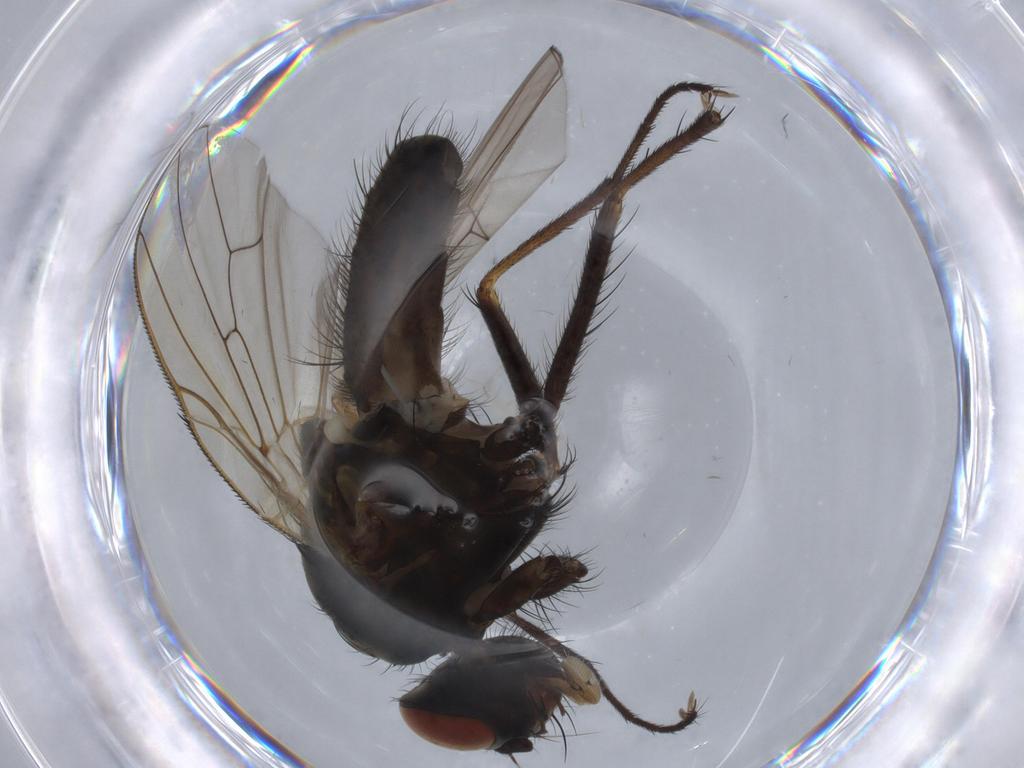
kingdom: Animalia
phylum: Arthropoda
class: Insecta
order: Diptera
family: Anthomyiidae
